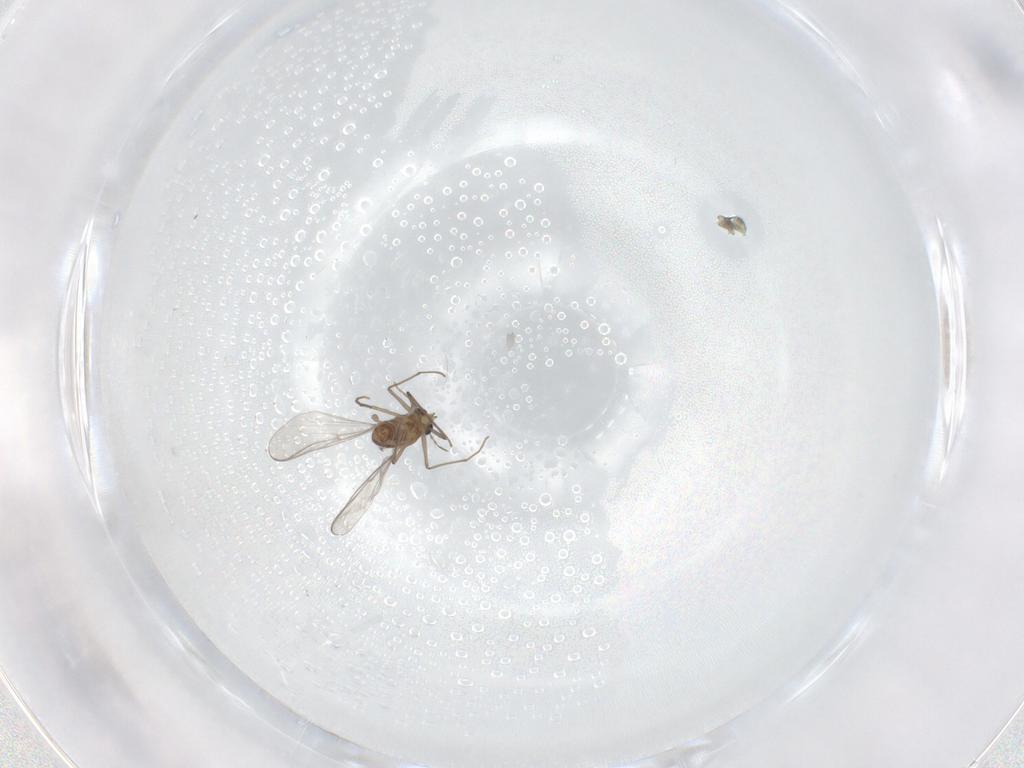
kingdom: Animalia
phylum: Arthropoda
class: Insecta
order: Diptera
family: Chironomidae
